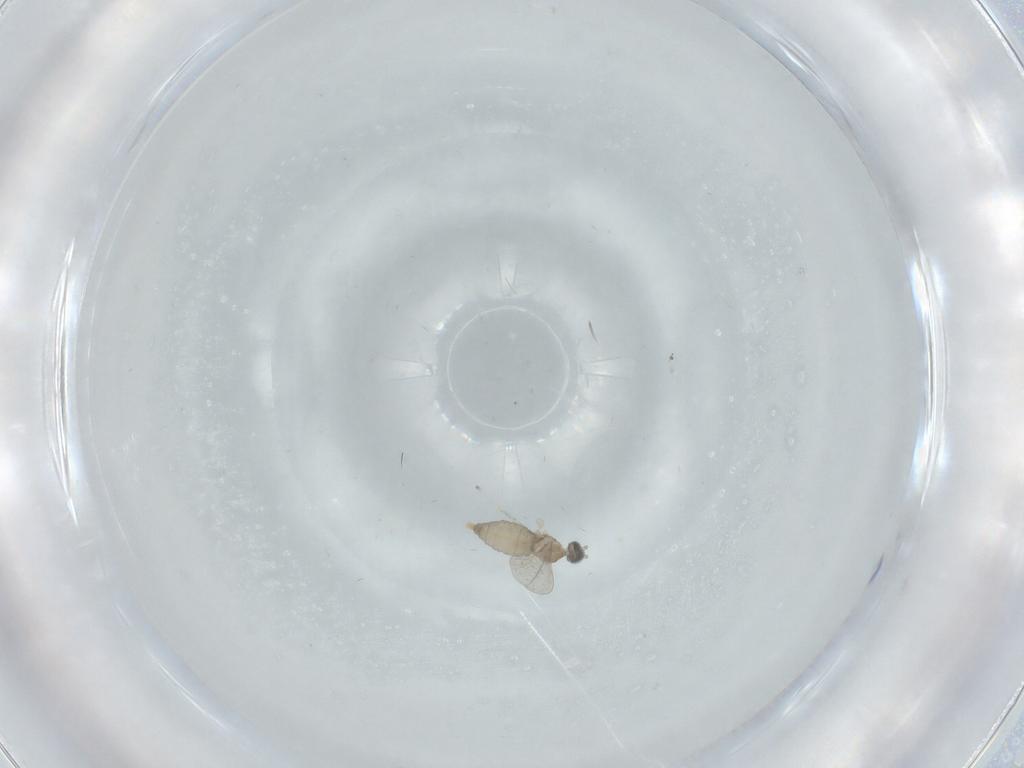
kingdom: Animalia
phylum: Arthropoda
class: Insecta
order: Diptera
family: Cecidomyiidae
